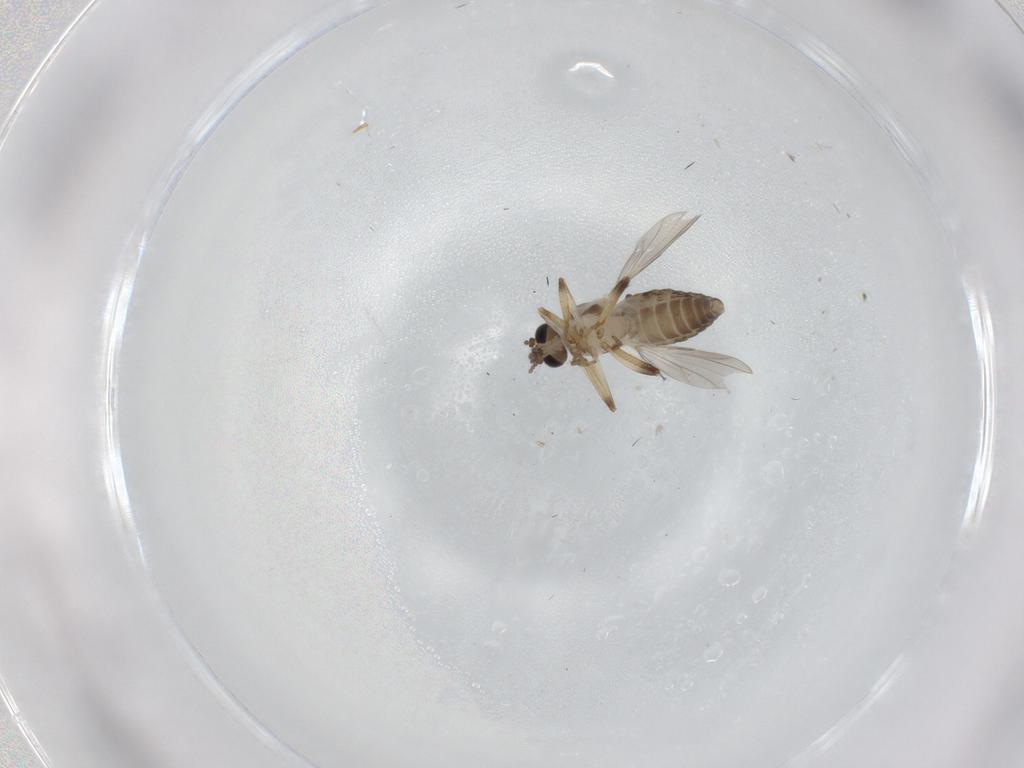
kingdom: Animalia
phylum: Arthropoda
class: Insecta
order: Diptera
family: Ceratopogonidae
